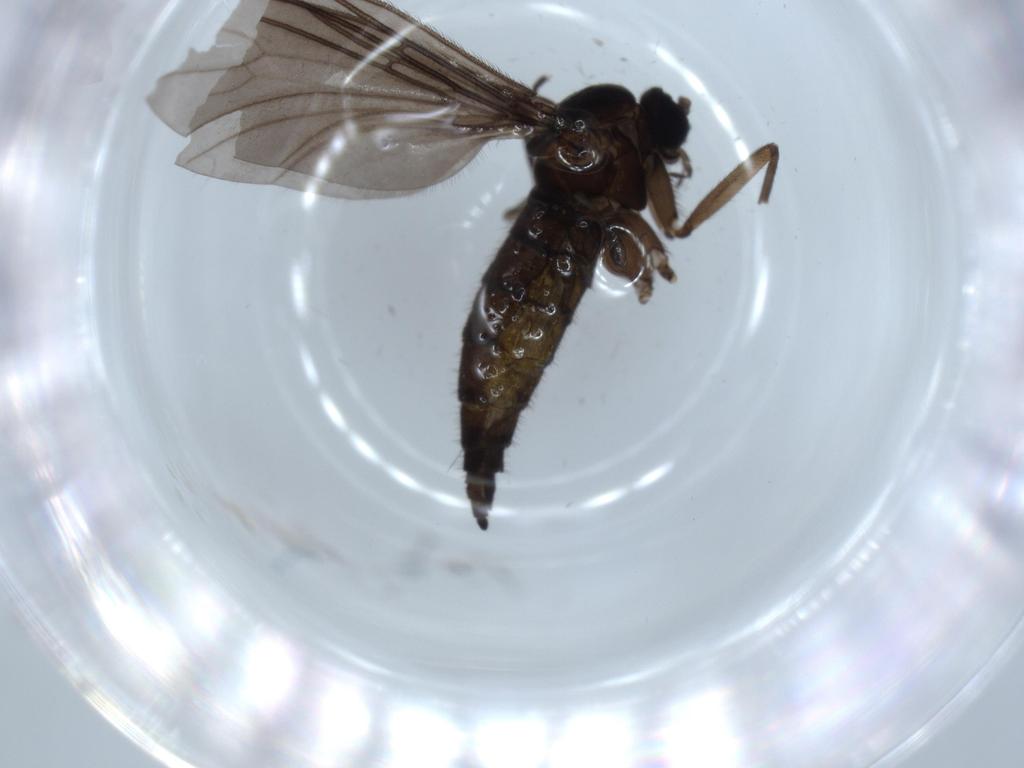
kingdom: Animalia
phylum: Arthropoda
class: Insecta
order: Diptera
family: Sciaridae
